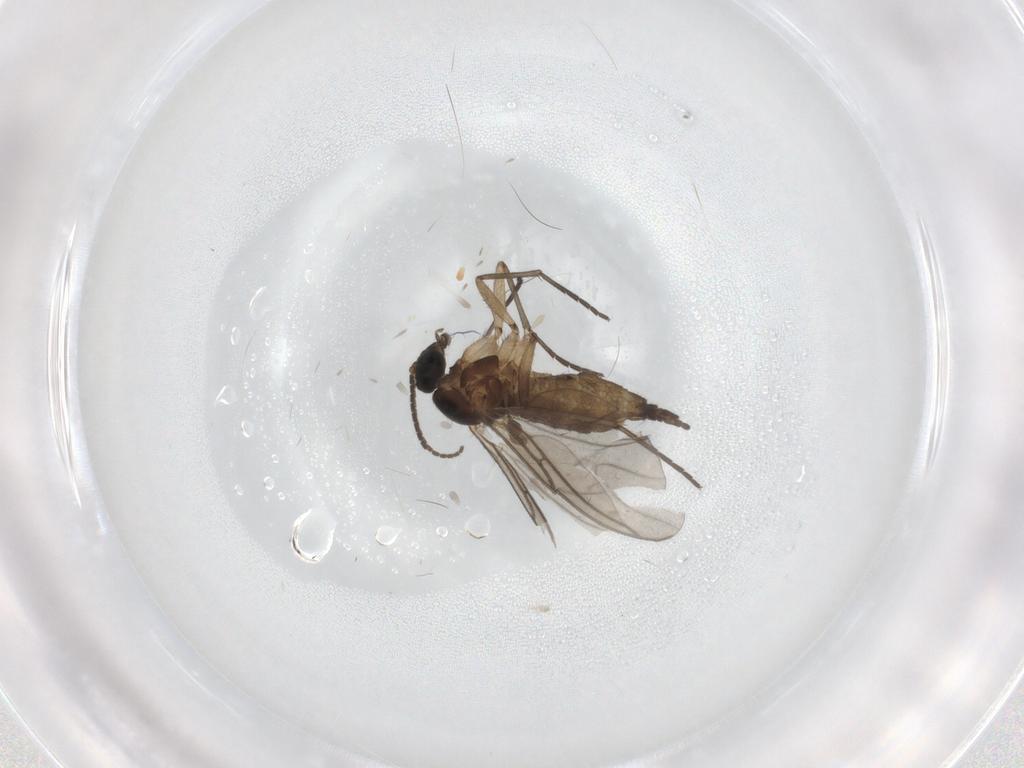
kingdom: Animalia
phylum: Arthropoda
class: Insecta
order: Diptera
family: Sciaridae
